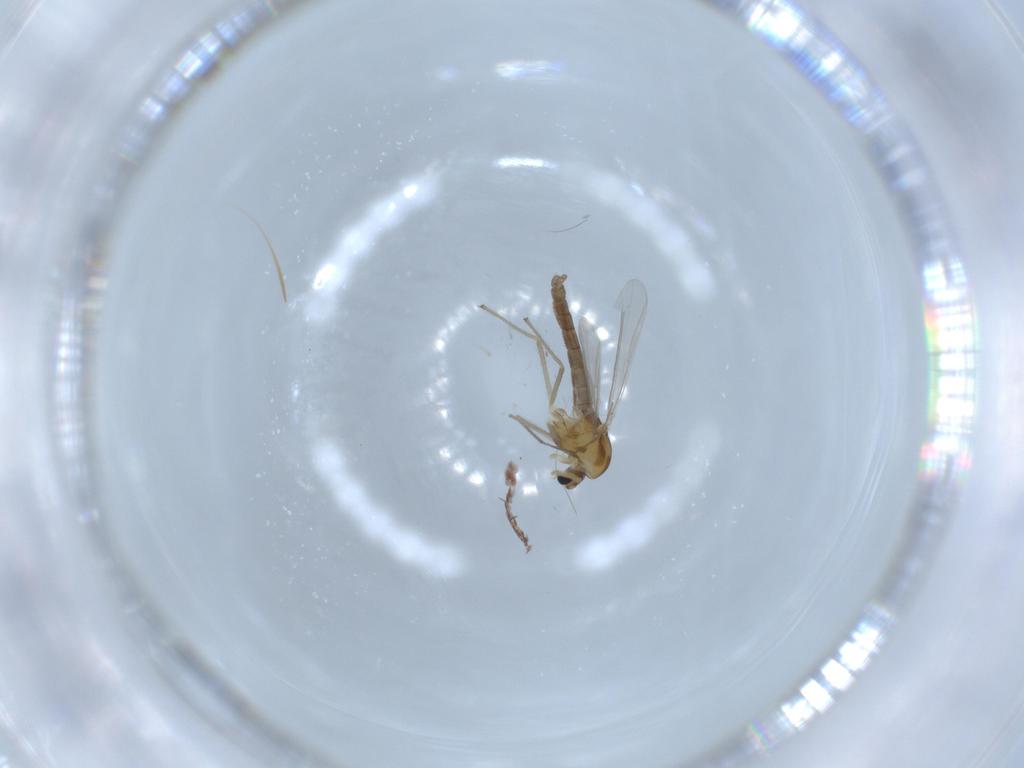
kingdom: Animalia
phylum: Arthropoda
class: Insecta
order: Diptera
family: Chironomidae
